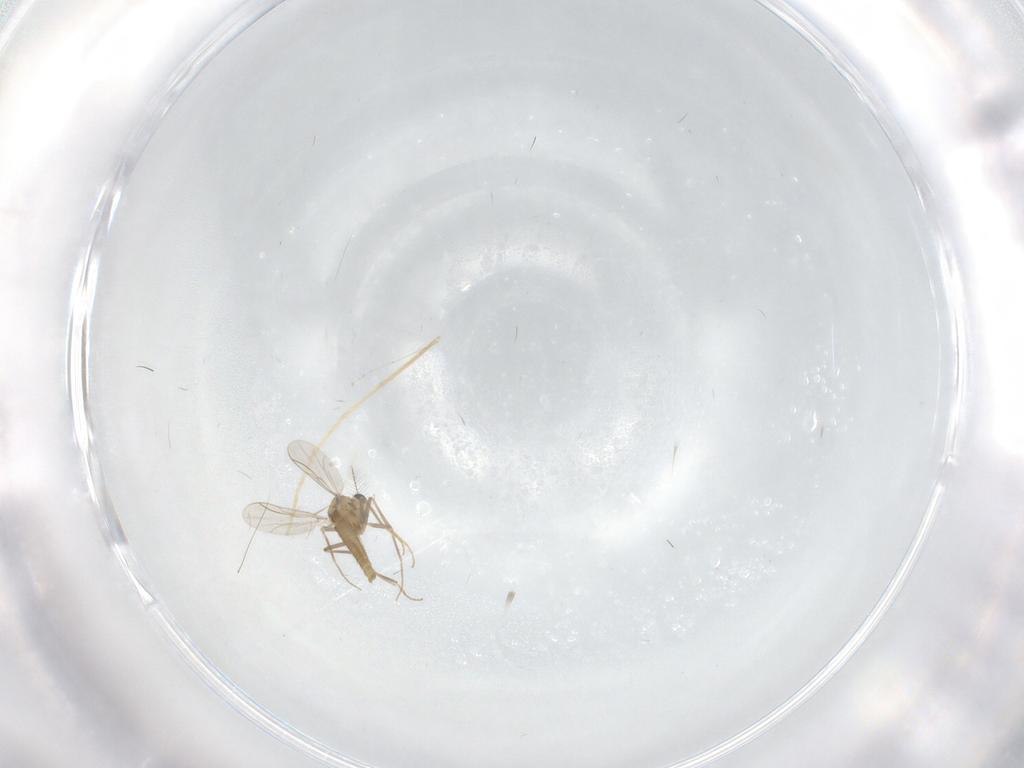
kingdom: Animalia
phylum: Arthropoda
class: Insecta
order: Diptera
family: Chironomidae
